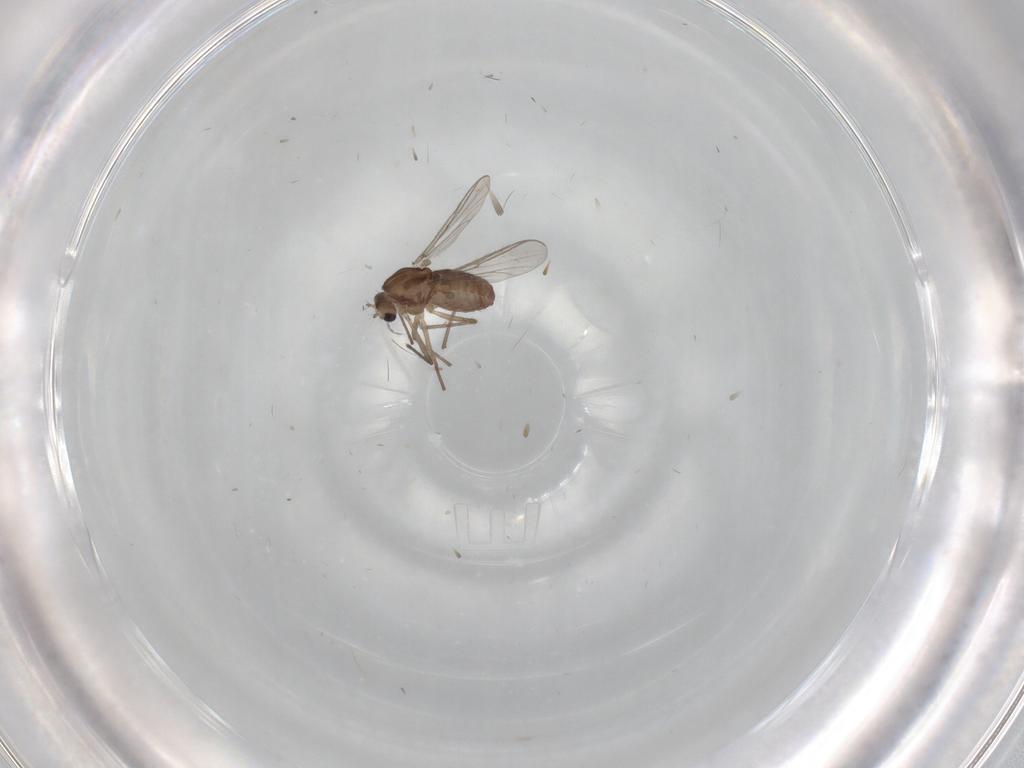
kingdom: Animalia
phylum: Arthropoda
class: Insecta
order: Diptera
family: Chironomidae
